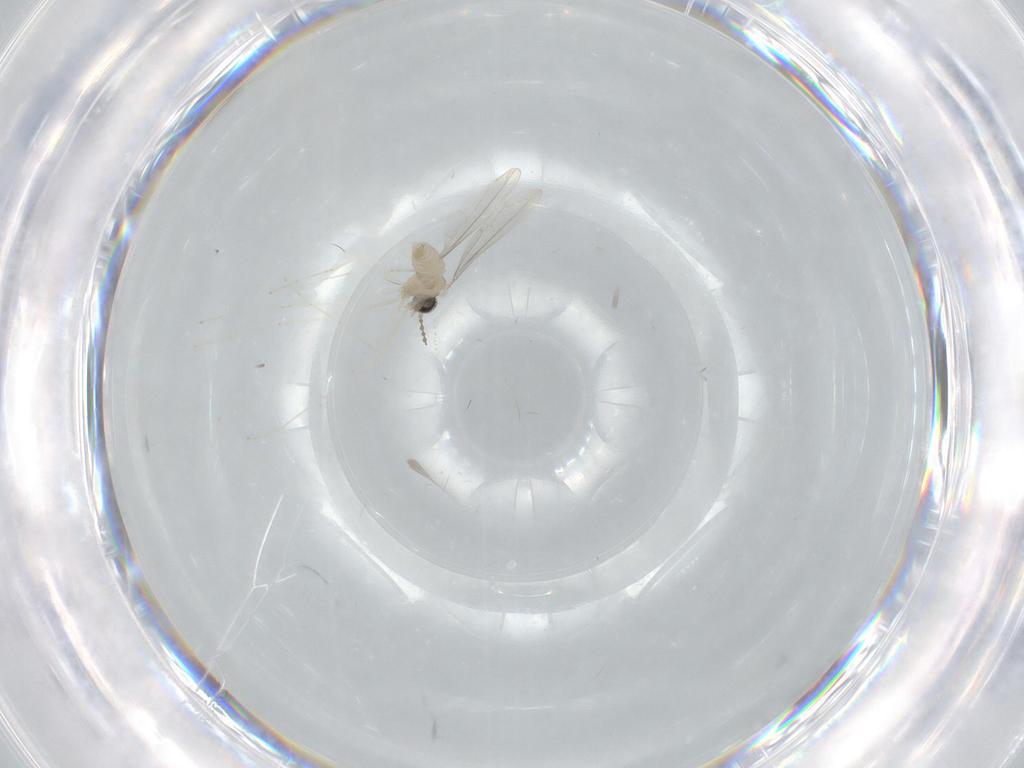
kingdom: Animalia
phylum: Arthropoda
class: Insecta
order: Diptera
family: Cecidomyiidae
